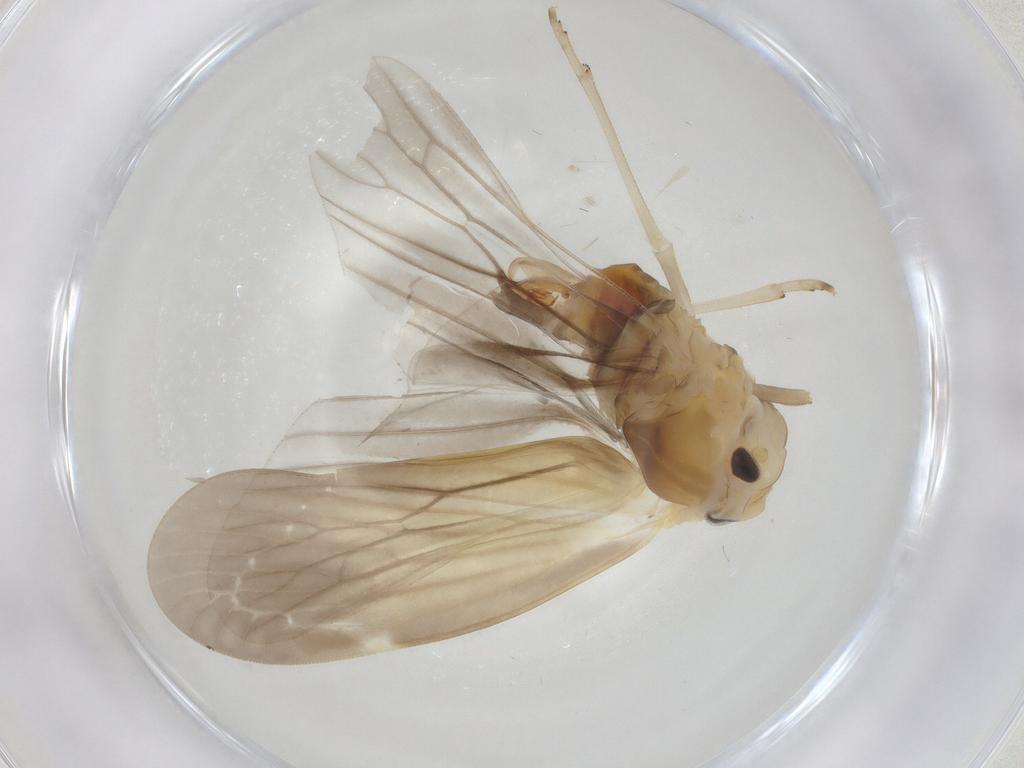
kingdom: Animalia
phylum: Arthropoda
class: Insecta
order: Hemiptera
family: Derbidae
